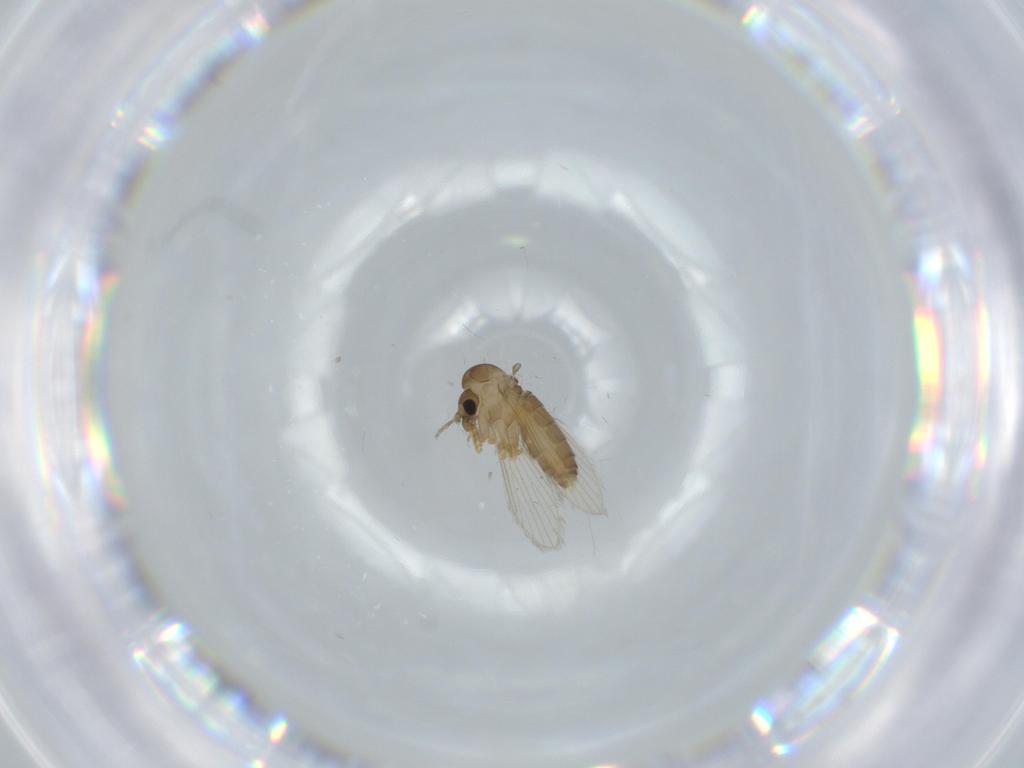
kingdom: Animalia
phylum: Arthropoda
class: Insecta
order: Diptera
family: Psychodidae
